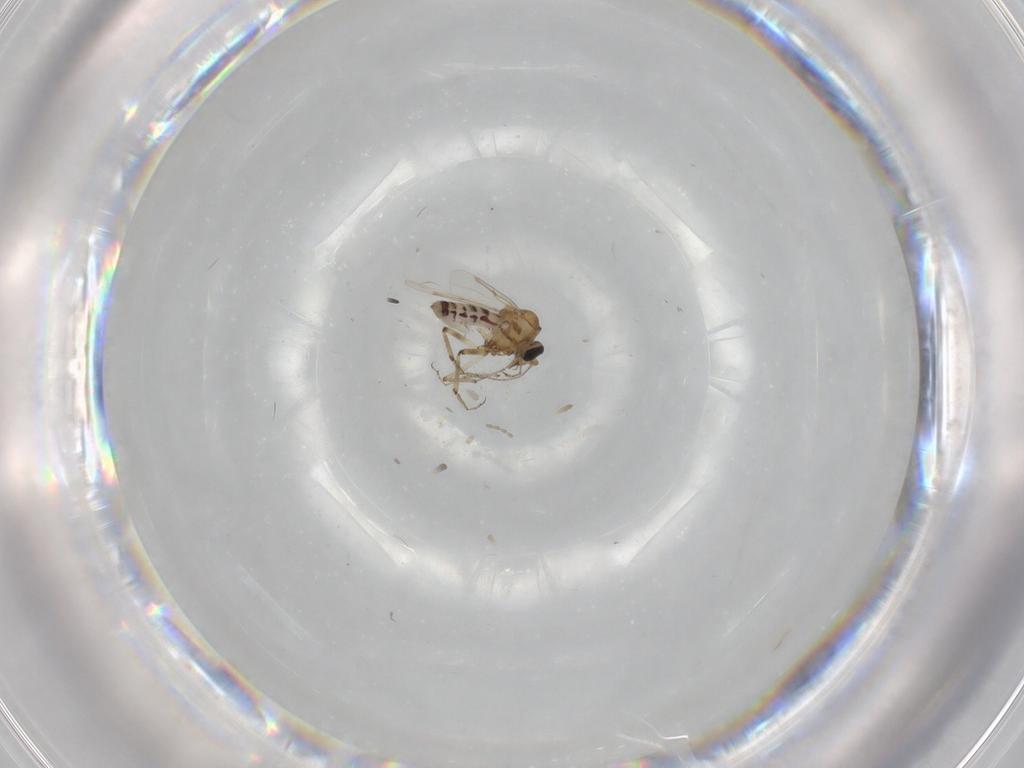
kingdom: Animalia
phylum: Arthropoda
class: Insecta
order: Diptera
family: Ceratopogonidae
